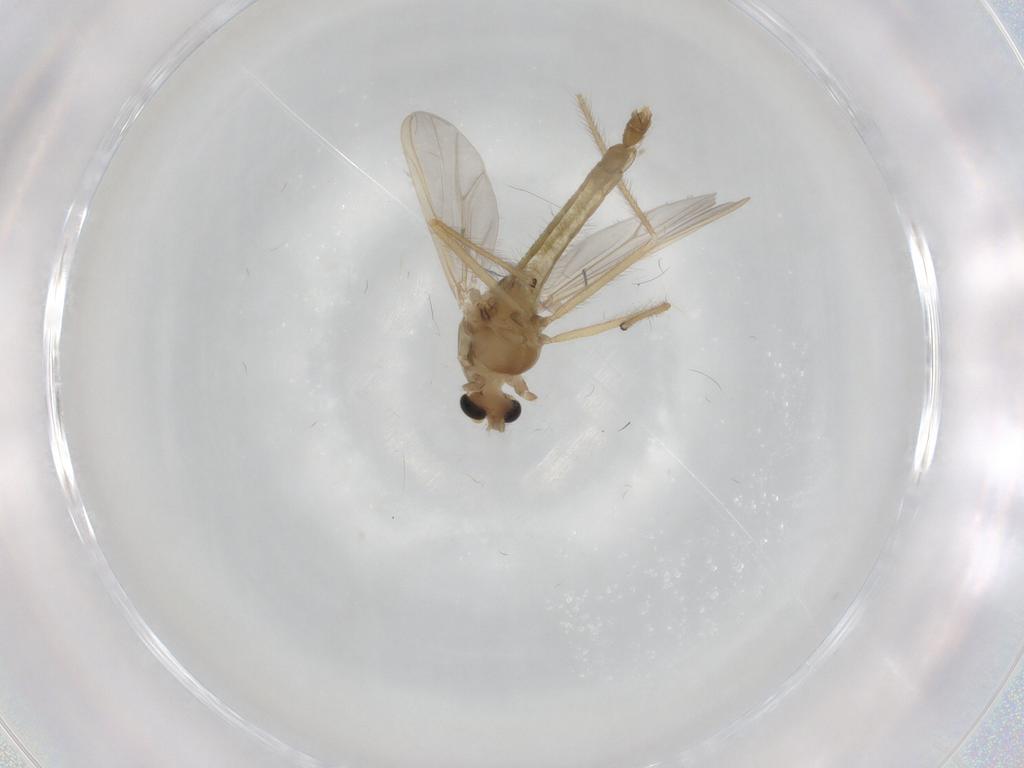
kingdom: Animalia
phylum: Arthropoda
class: Insecta
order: Diptera
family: Chironomidae
